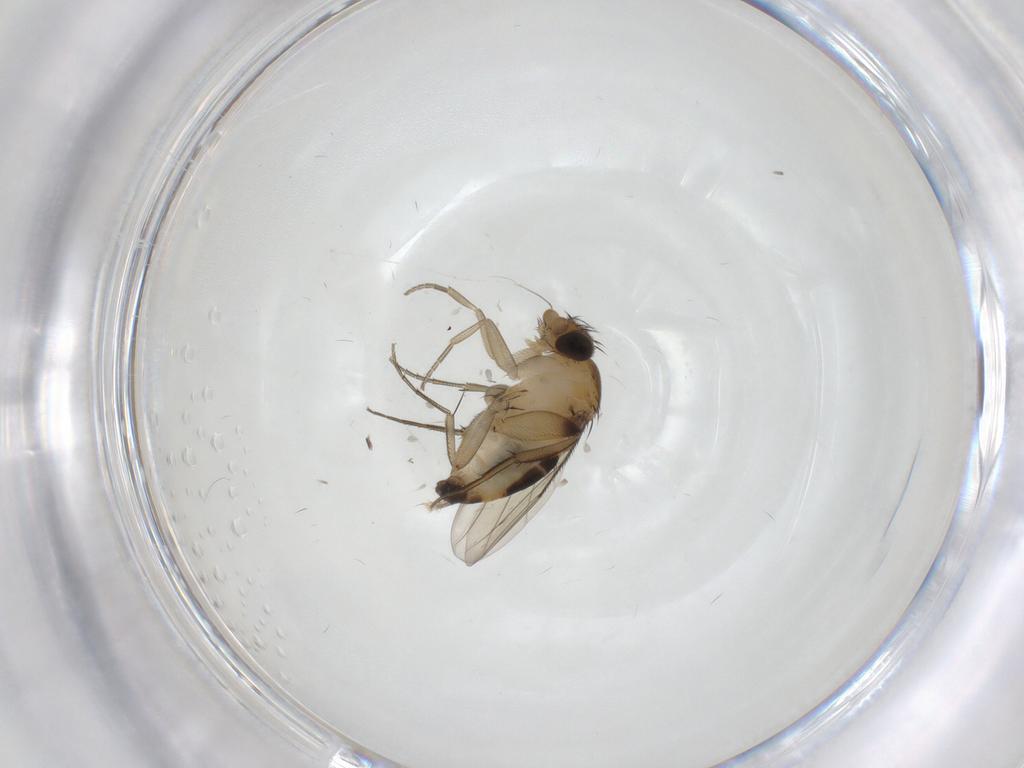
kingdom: Animalia
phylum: Arthropoda
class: Insecta
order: Diptera
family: Phoridae
